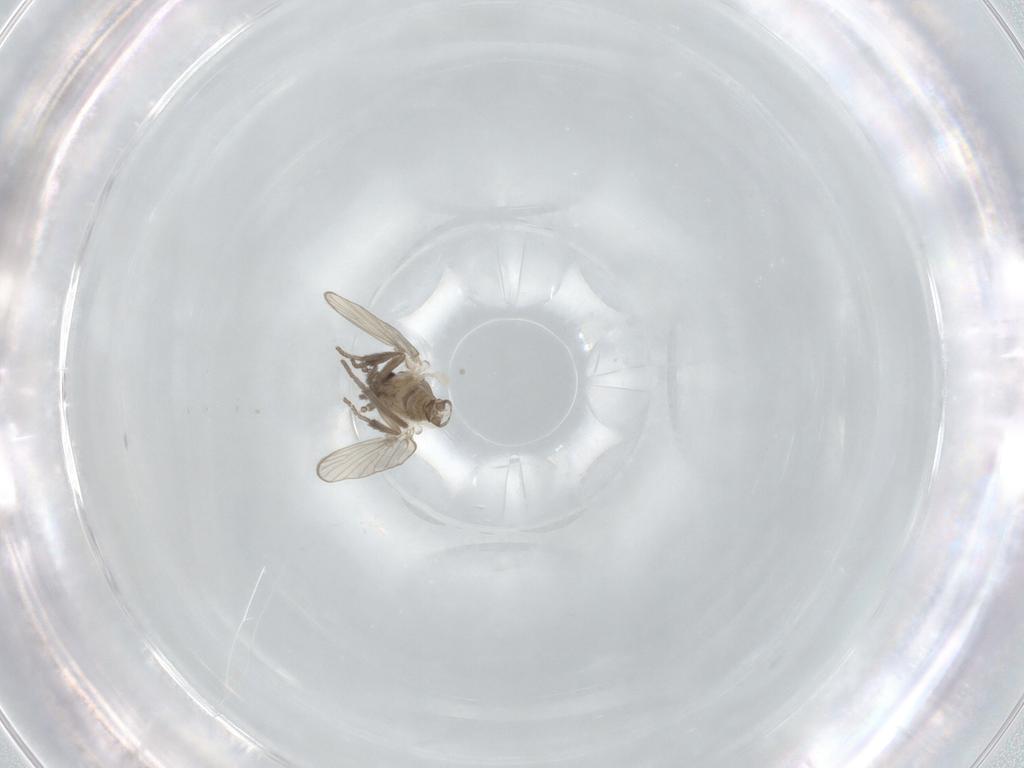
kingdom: Animalia
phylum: Arthropoda
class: Insecta
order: Diptera
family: Psychodidae
